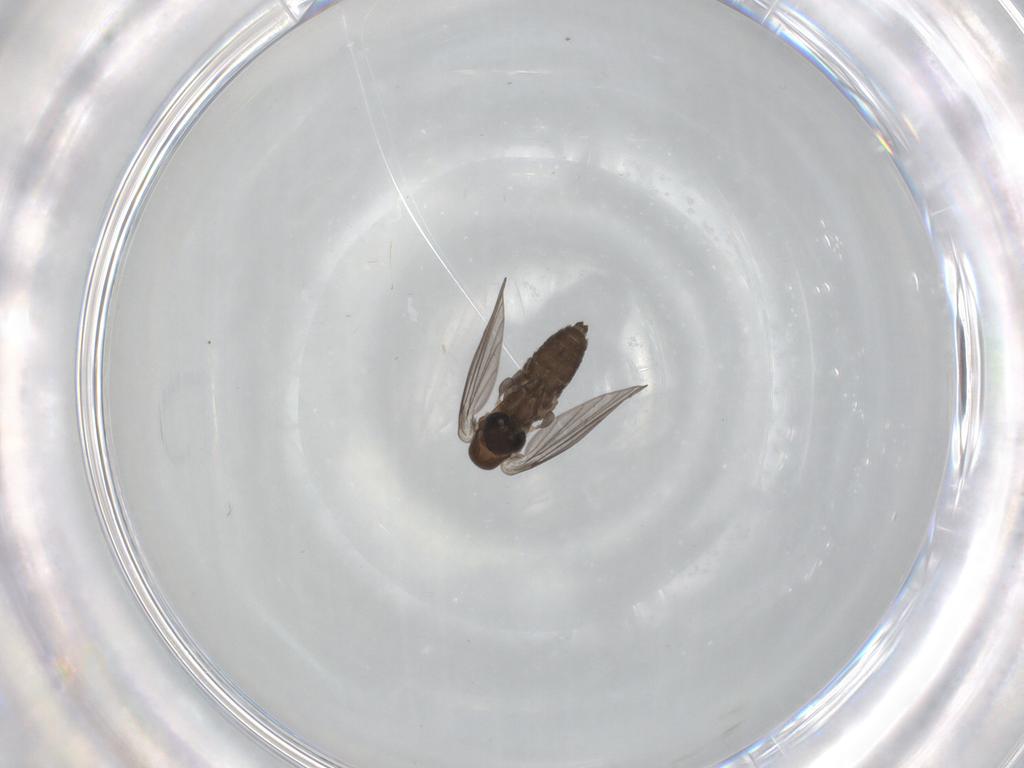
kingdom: Animalia
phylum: Arthropoda
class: Insecta
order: Diptera
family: Psychodidae
